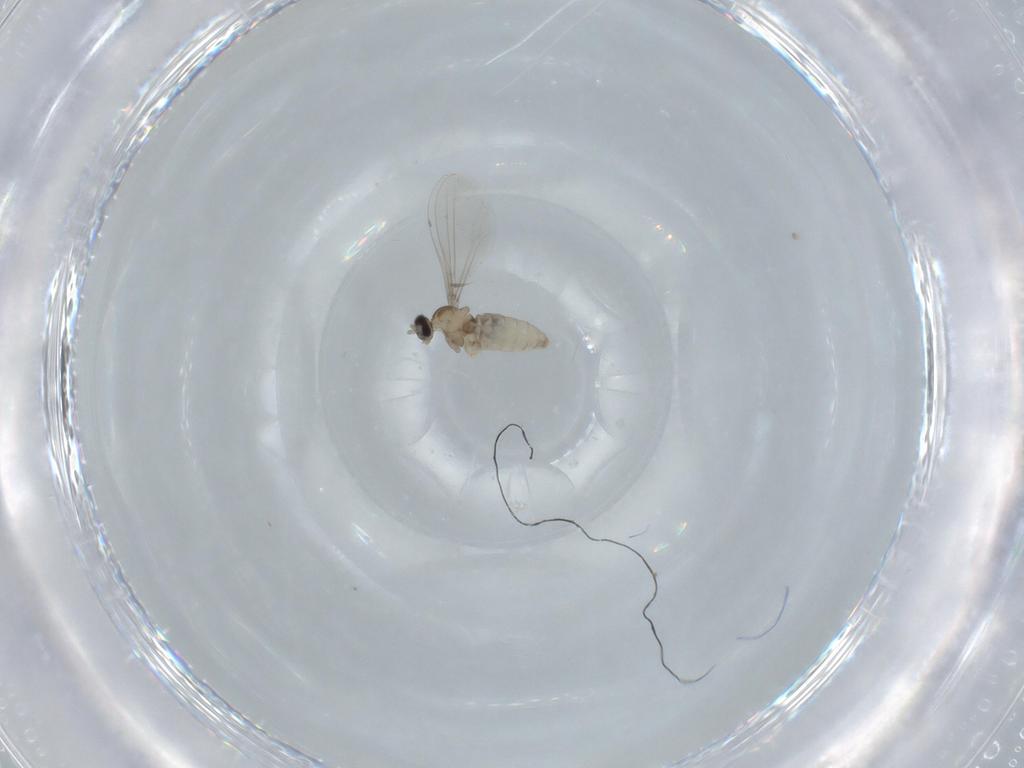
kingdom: Animalia
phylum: Arthropoda
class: Insecta
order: Diptera
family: Cecidomyiidae
